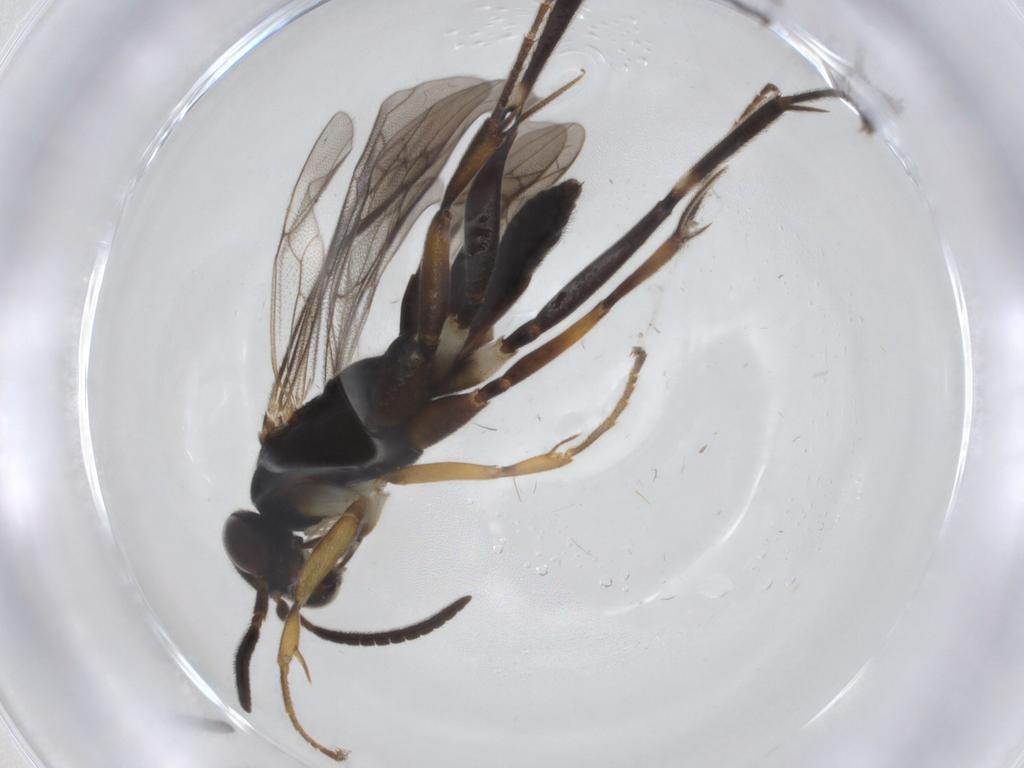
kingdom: Animalia
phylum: Arthropoda
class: Insecta
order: Hymenoptera
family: Pompilidae
